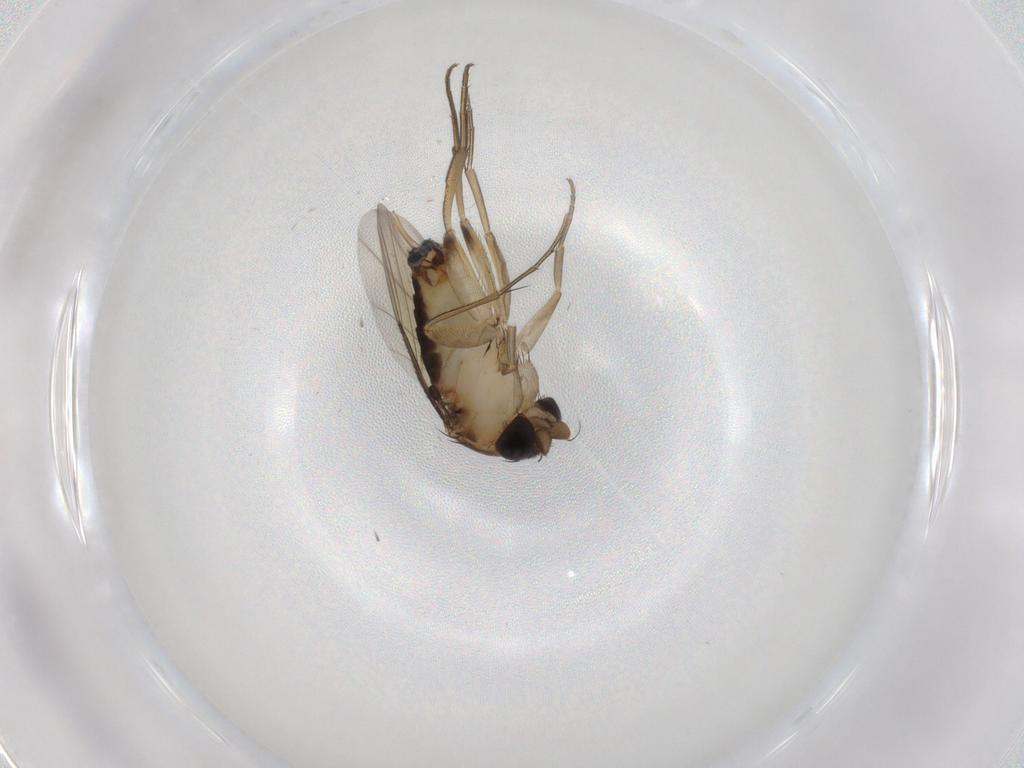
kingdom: Animalia
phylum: Arthropoda
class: Insecta
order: Diptera
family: Phoridae
